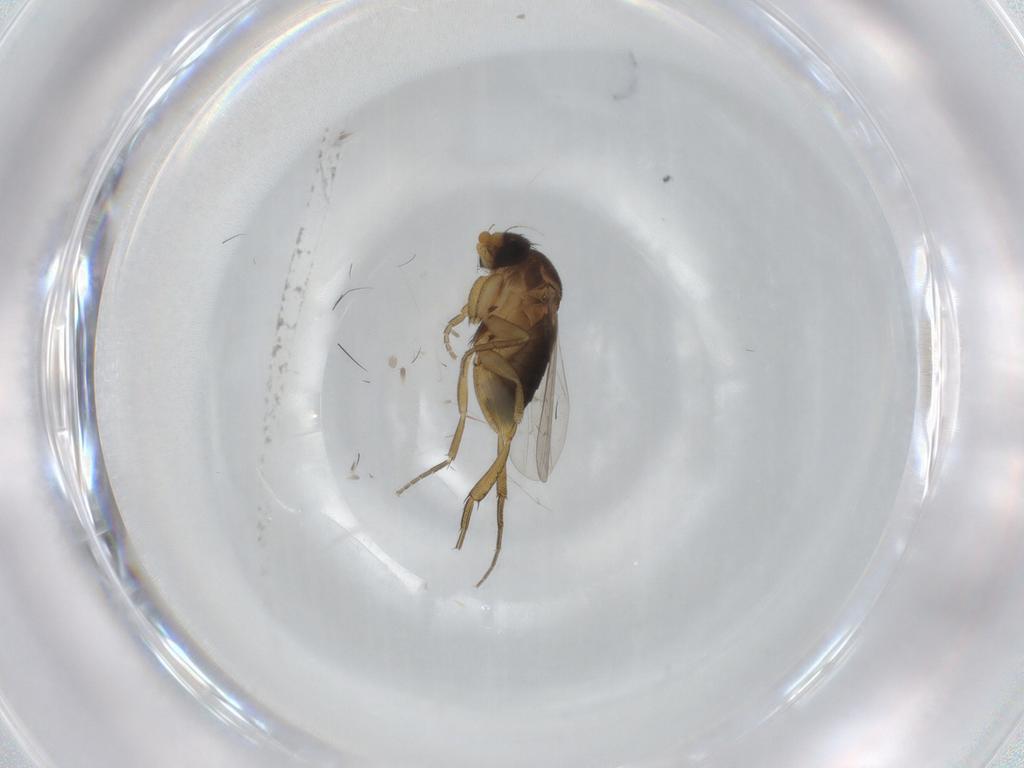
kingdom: Animalia
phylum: Arthropoda
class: Insecta
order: Diptera
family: Phoridae
